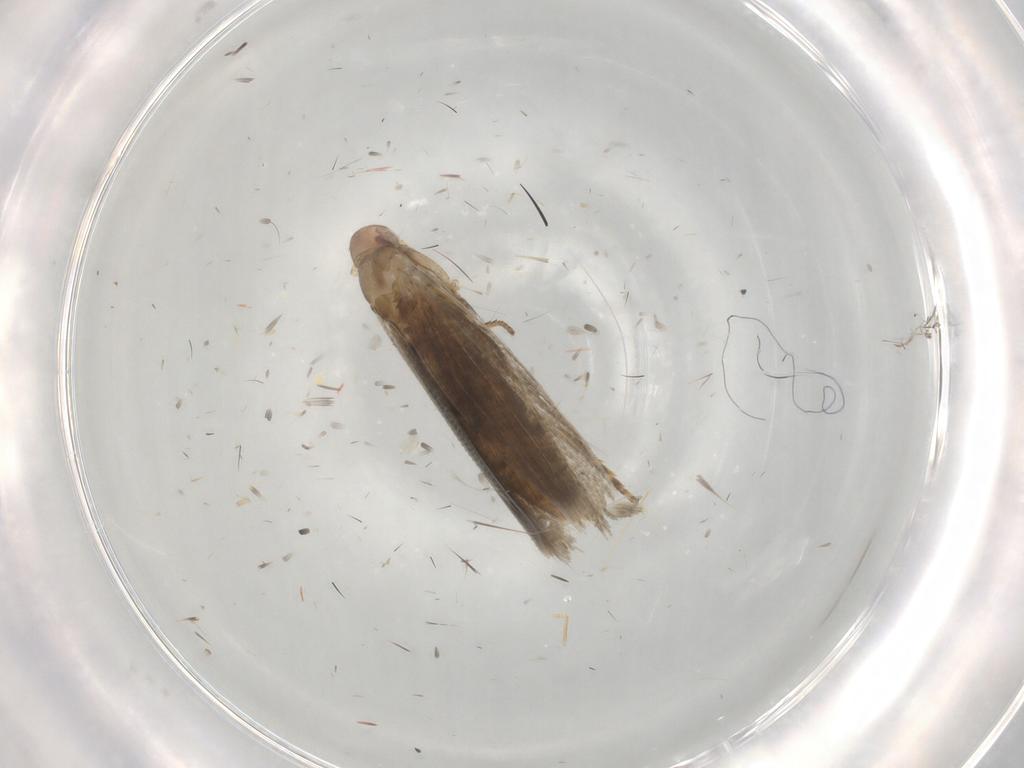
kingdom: Animalia
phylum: Arthropoda
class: Insecta
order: Lepidoptera
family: Momphidae
